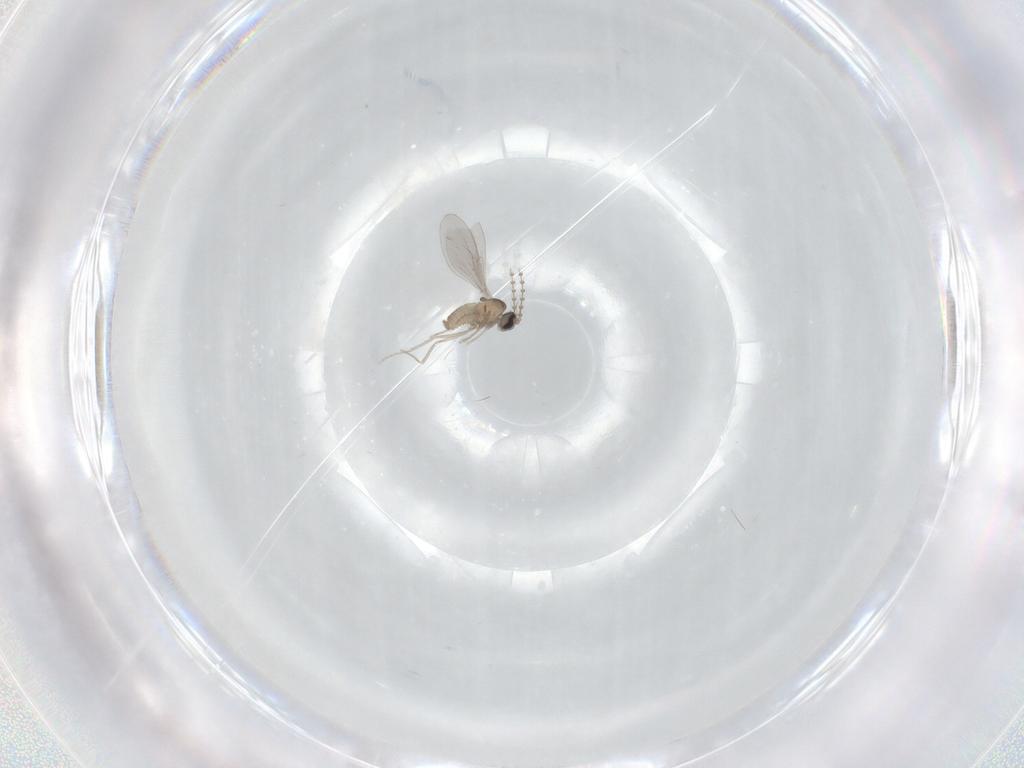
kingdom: Animalia
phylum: Arthropoda
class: Insecta
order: Diptera
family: Cecidomyiidae
